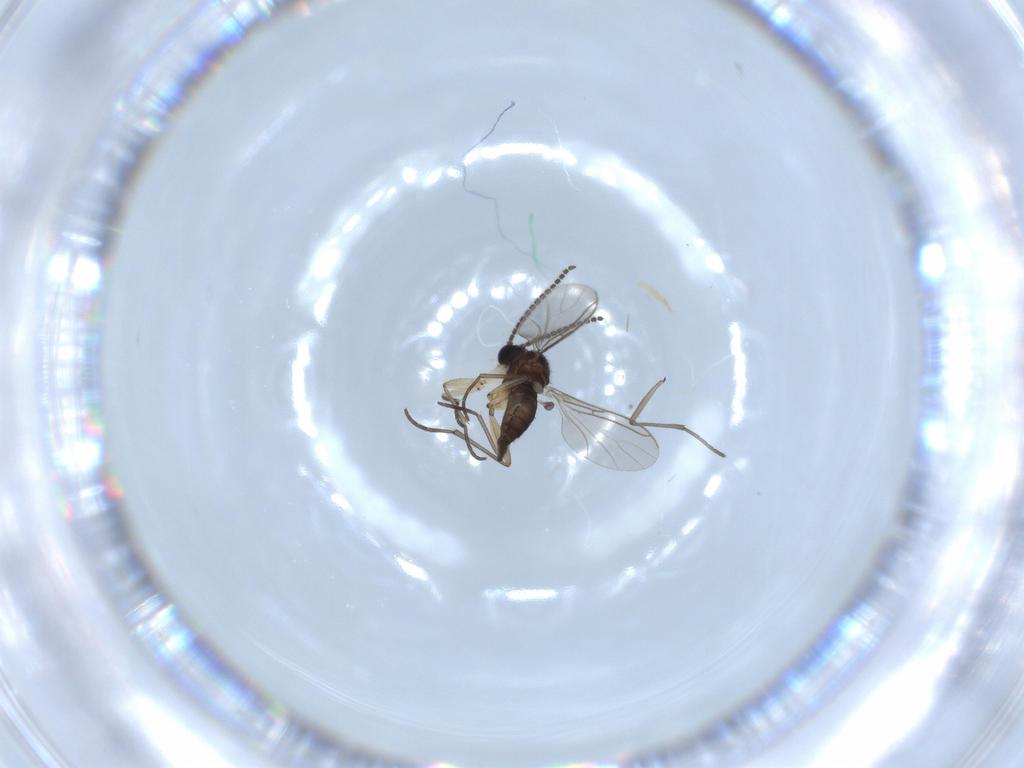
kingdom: Animalia
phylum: Arthropoda
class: Insecta
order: Diptera
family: Sciaridae
